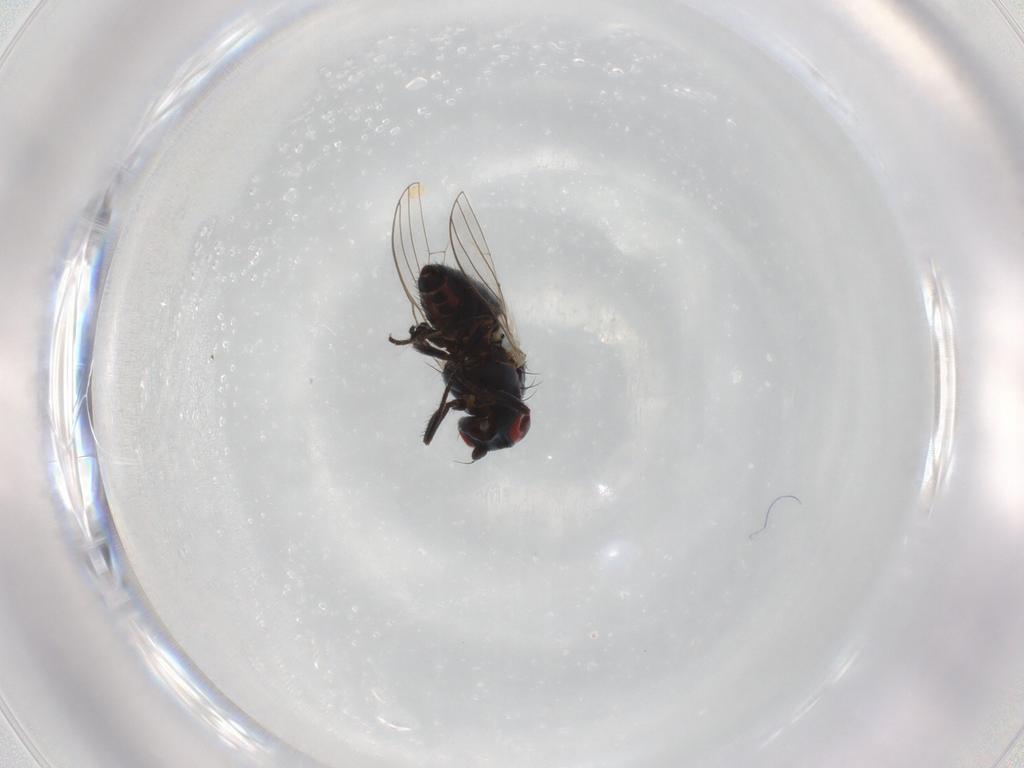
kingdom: Animalia
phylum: Arthropoda
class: Insecta
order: Diptera
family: Chamaemyiidae
